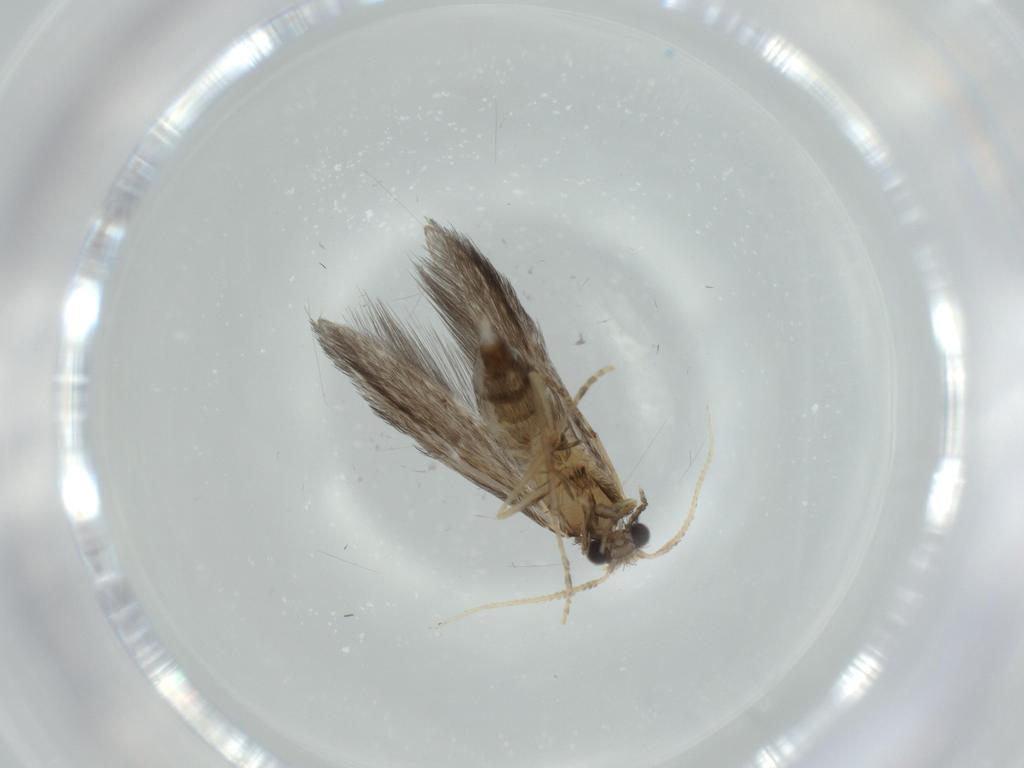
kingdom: Animalia
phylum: Arthropoda
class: Insecta
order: Trichoptera
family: Hydroptilidae
